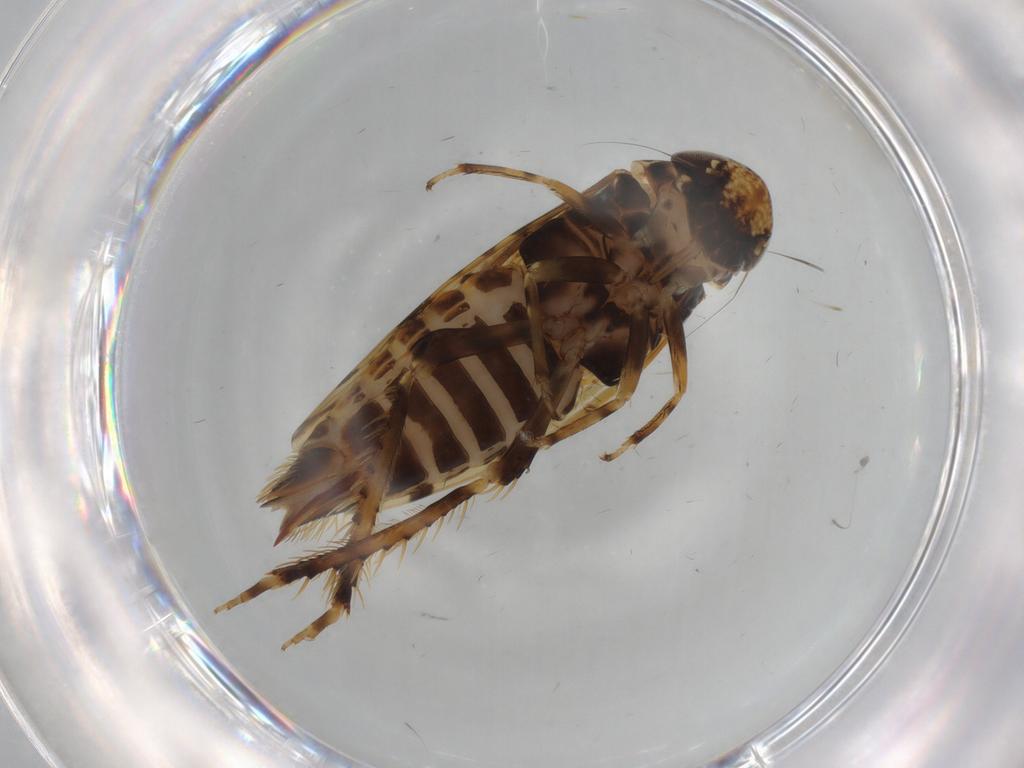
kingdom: Animalia
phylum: Arthropoda
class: Insecta
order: Hemiptera
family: Cicadellidae
